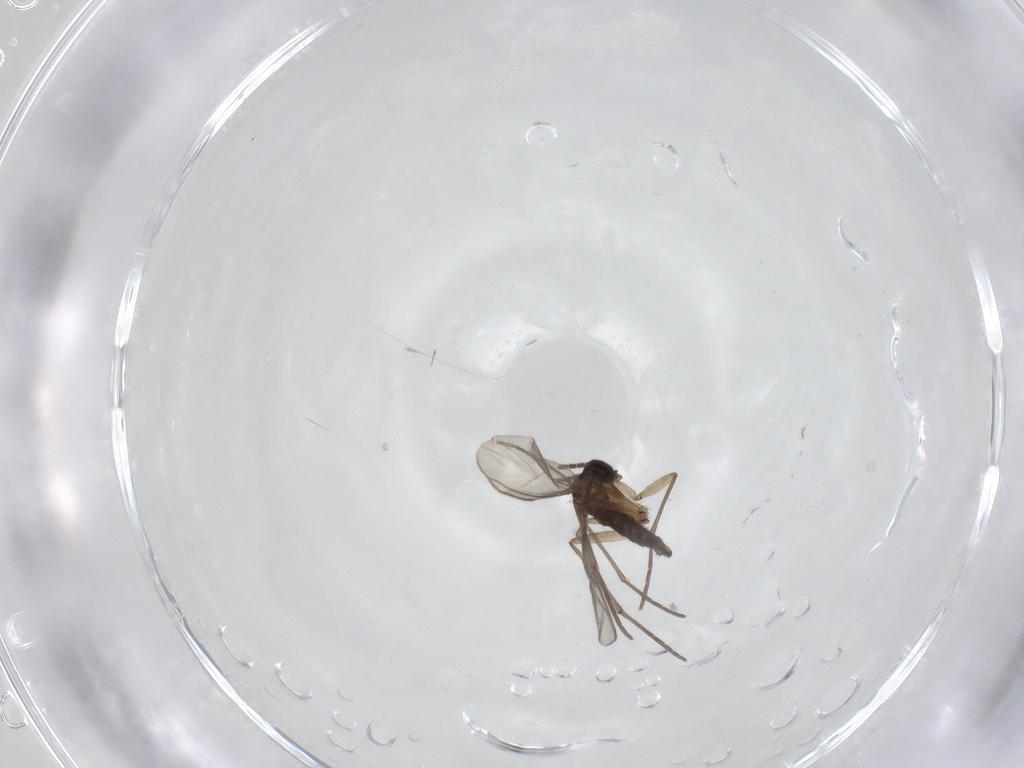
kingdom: Animalia
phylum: Arthropoda
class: Insecta
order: Diptera
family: Sciaridae
